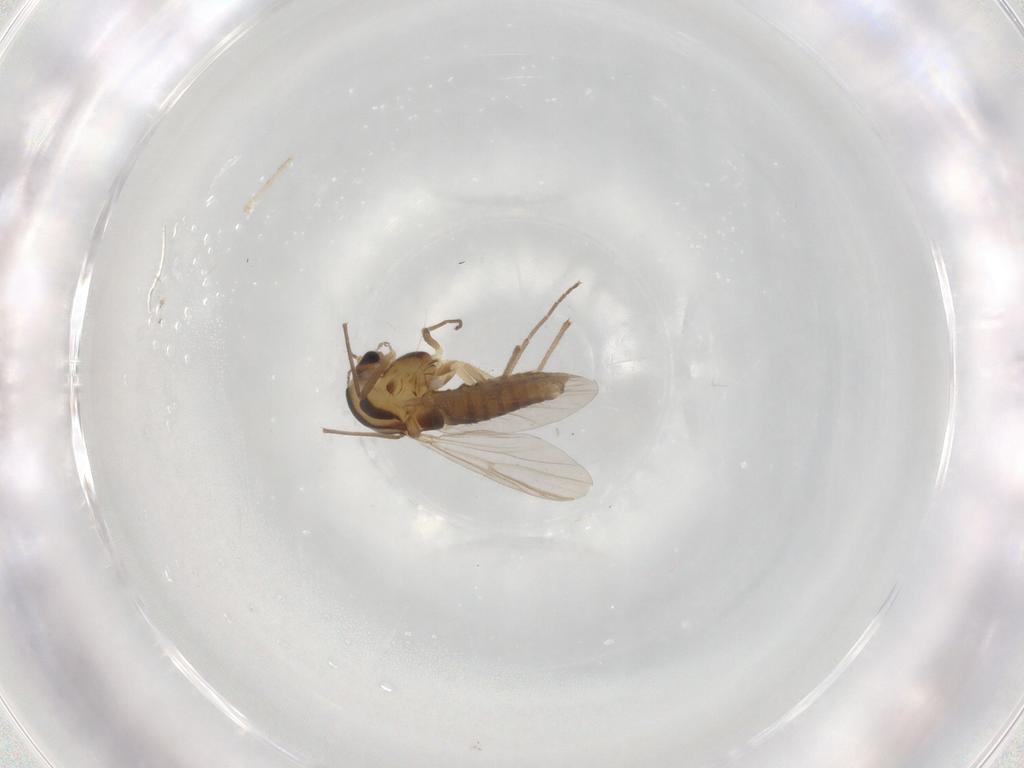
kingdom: Animalia
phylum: Arthropoda
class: Insecta
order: Diptera
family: Chironomidae
